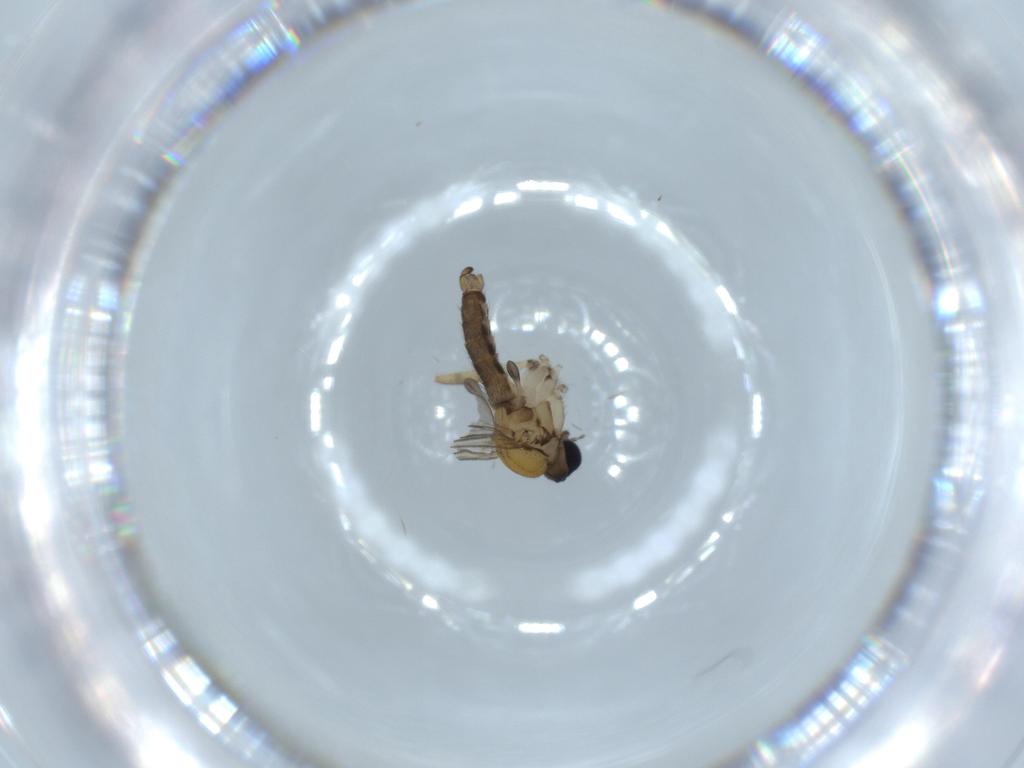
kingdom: Animalia
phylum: Arthropoda
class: Insecta
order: Diptera
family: Sciaridae
